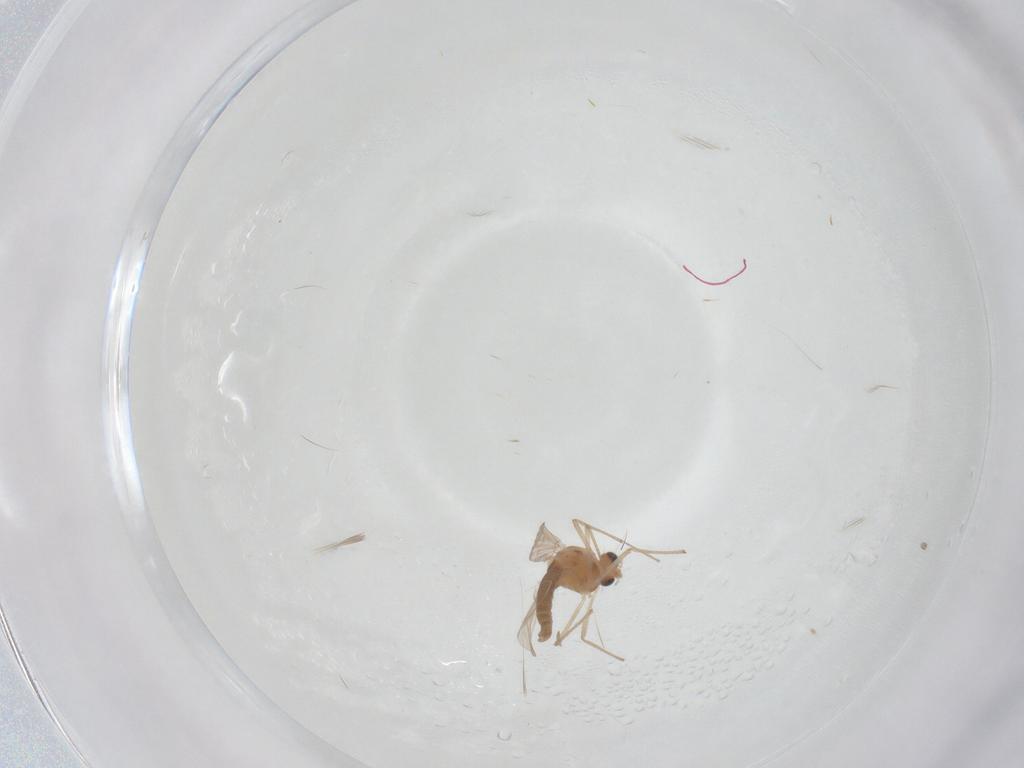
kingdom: Animalia
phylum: Arthropoda
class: Insecta
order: Diptera
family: Chironomidae
